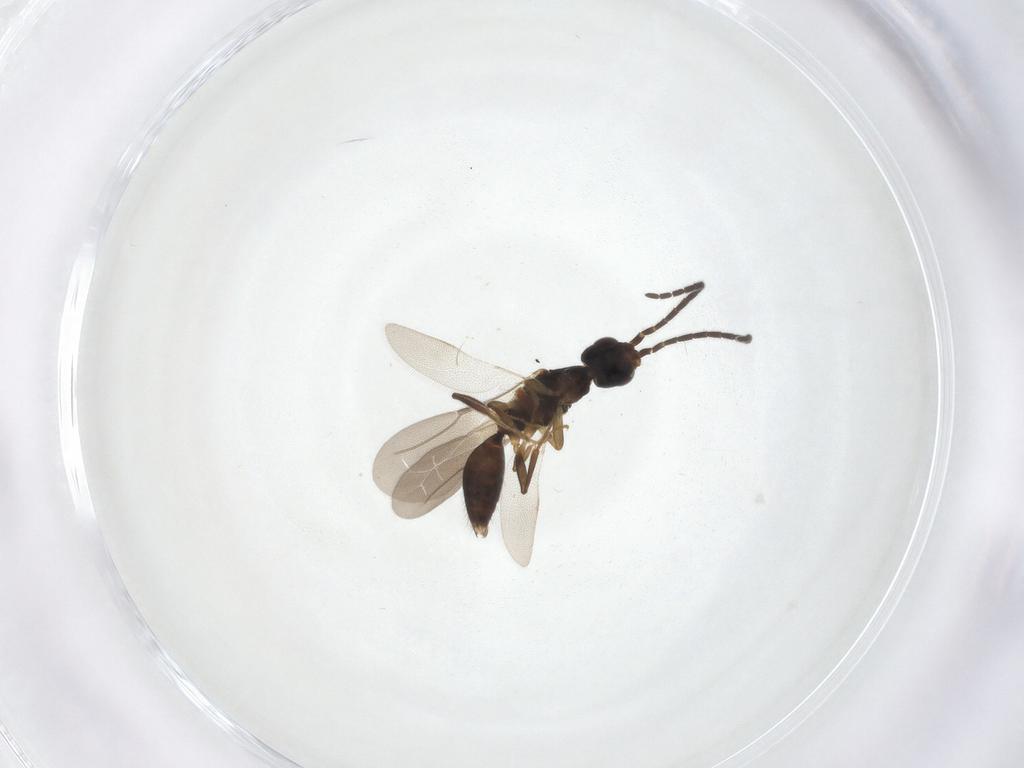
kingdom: Animalia
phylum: Arthropoda
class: Insecta
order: Hymenoptera
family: Bethylidae
